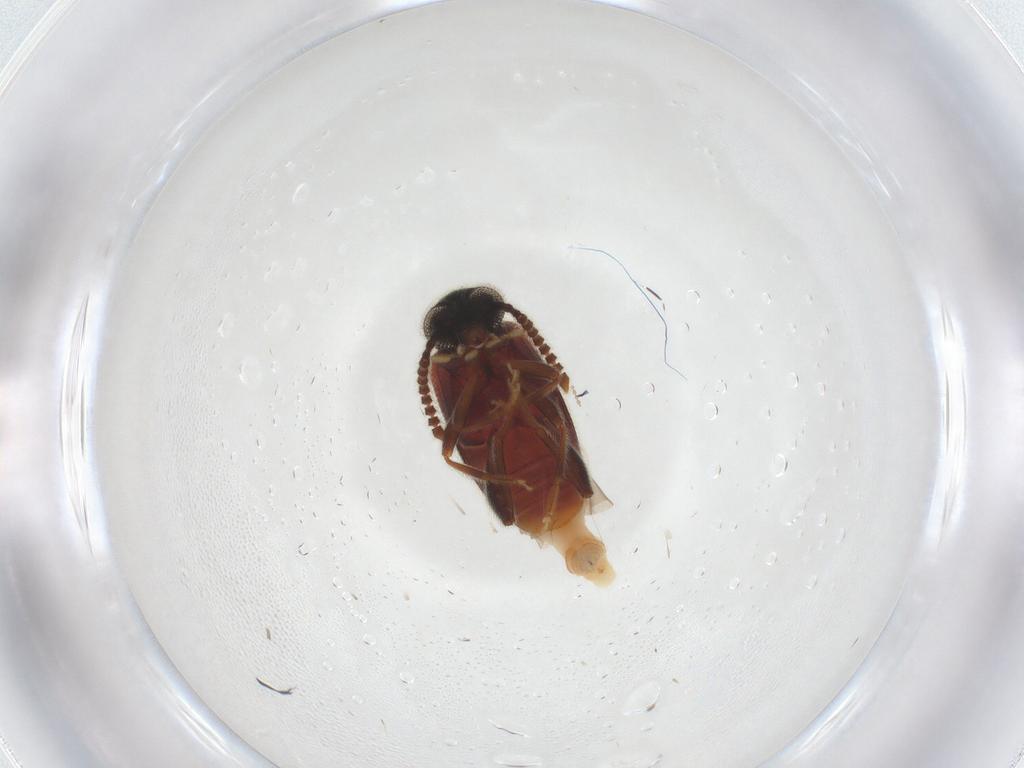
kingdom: Animalia
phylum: Arthropoda
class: Insecta
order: Coleoptera
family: Aderidae
